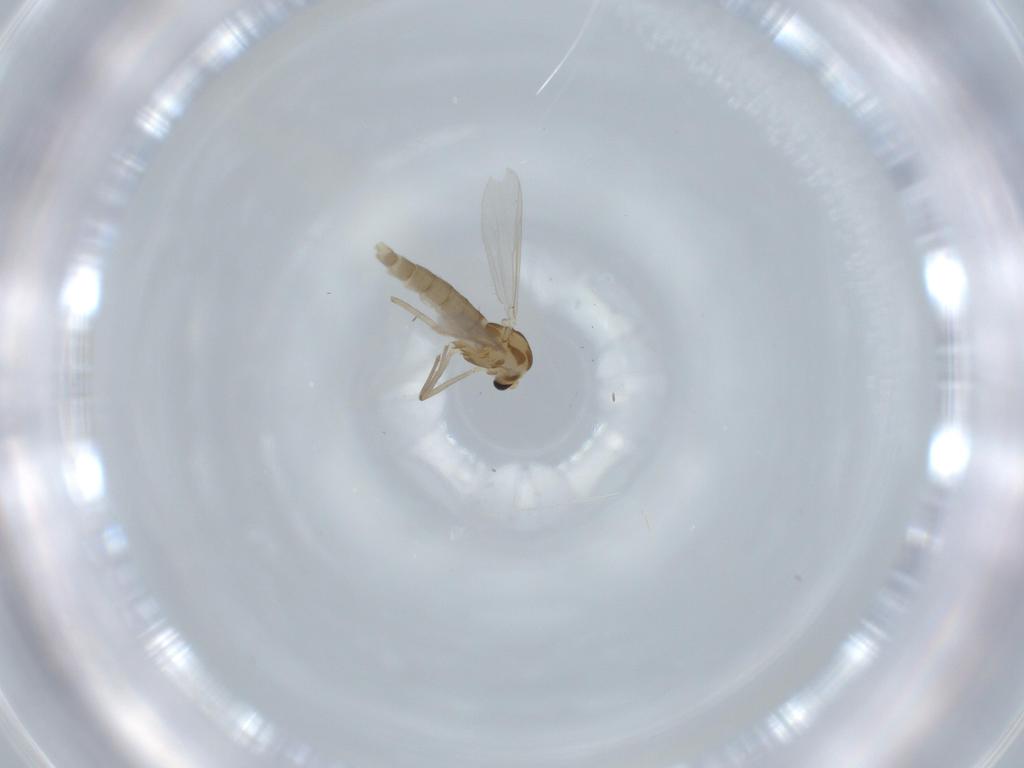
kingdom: Animalia
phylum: Arthropoda
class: Insecta
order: Diptera
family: Chironomidae
